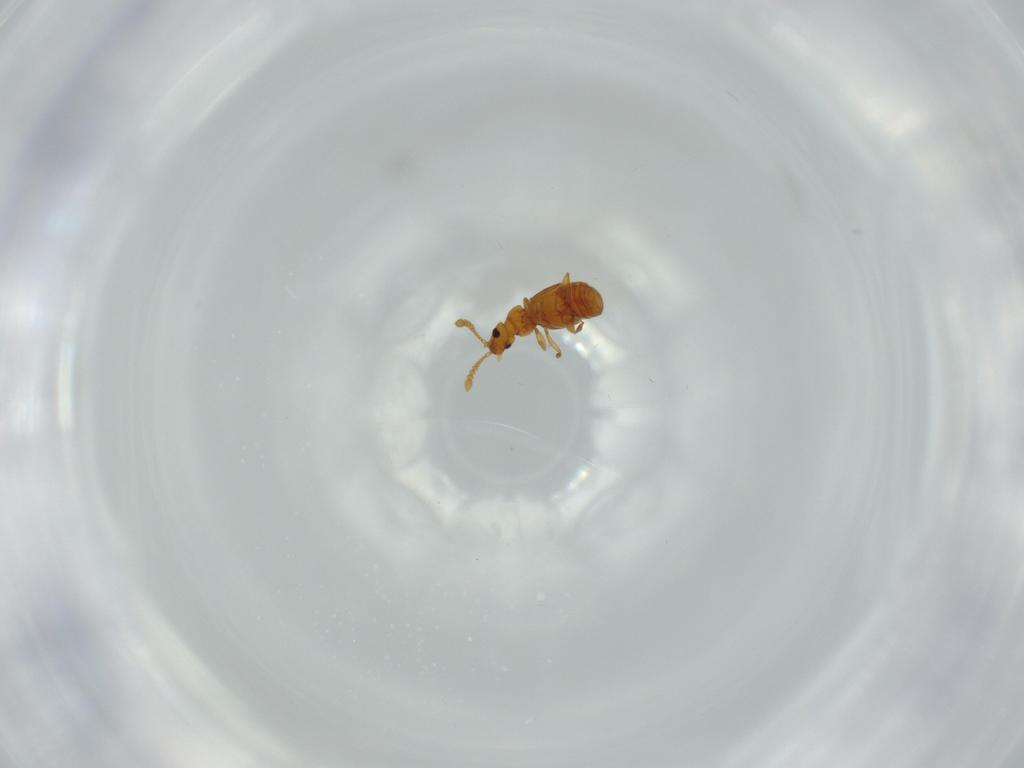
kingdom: Animalia
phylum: Arthropoda
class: Insecta
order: Coleoptera
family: Staphylinidae
